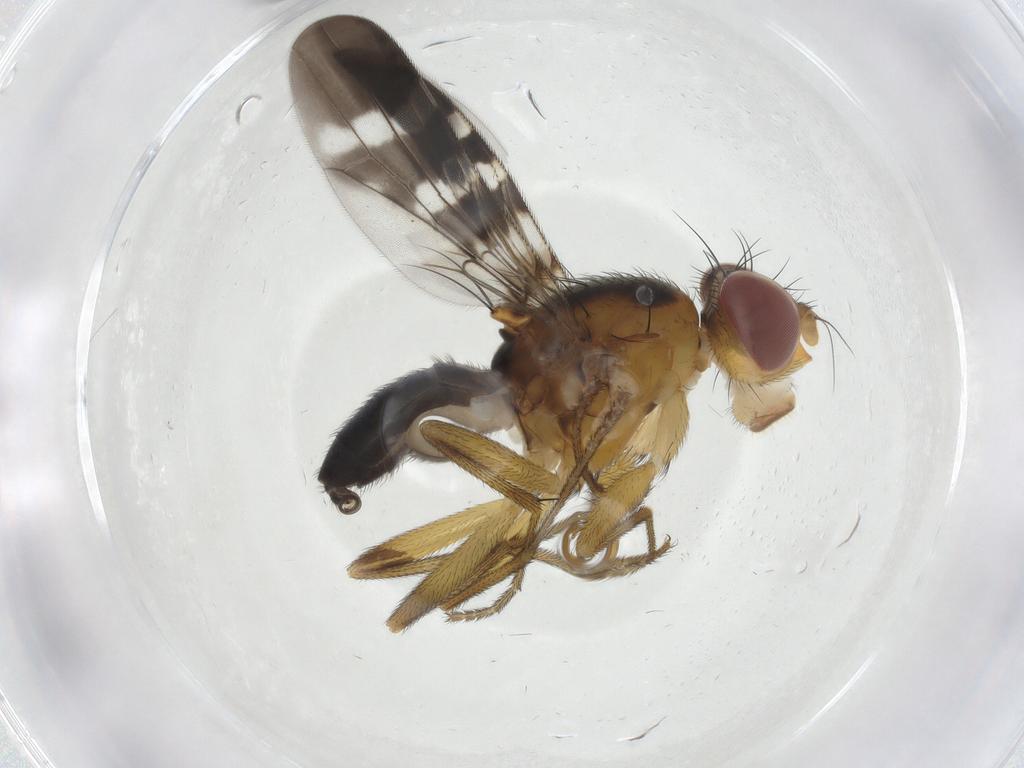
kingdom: Animalia
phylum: Arthropoda
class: Insecta
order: Diptera
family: Tephritidae
